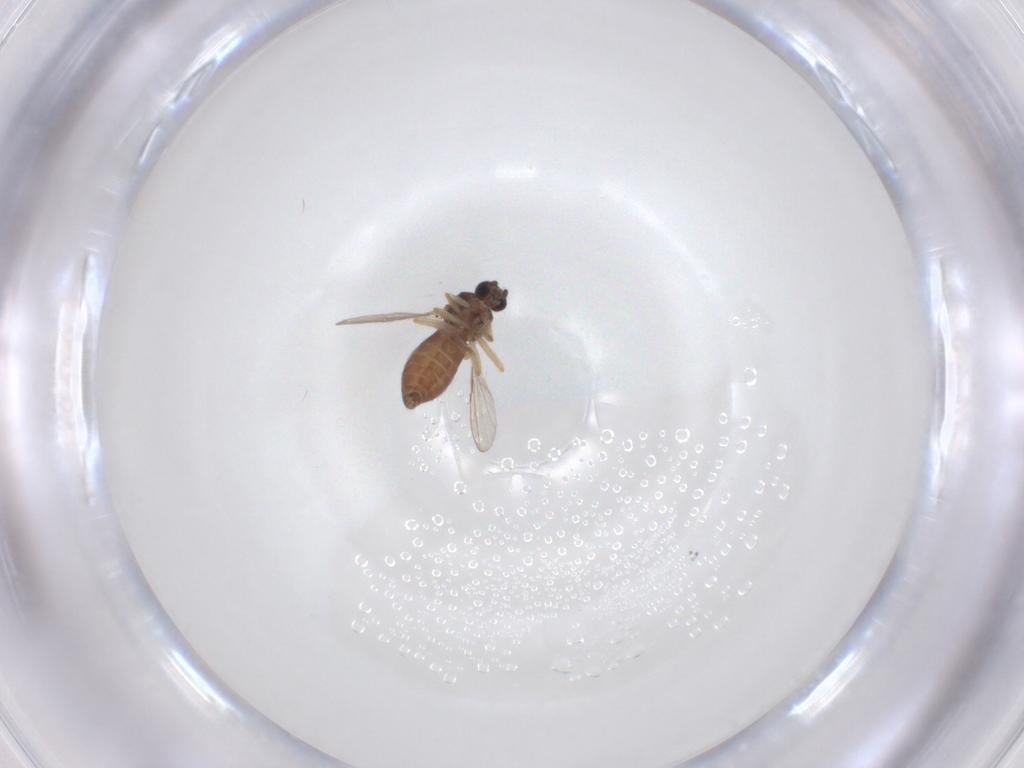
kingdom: Animalia
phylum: Arthropoda
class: Insecta
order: Diptera
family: Ceratopogonidae
